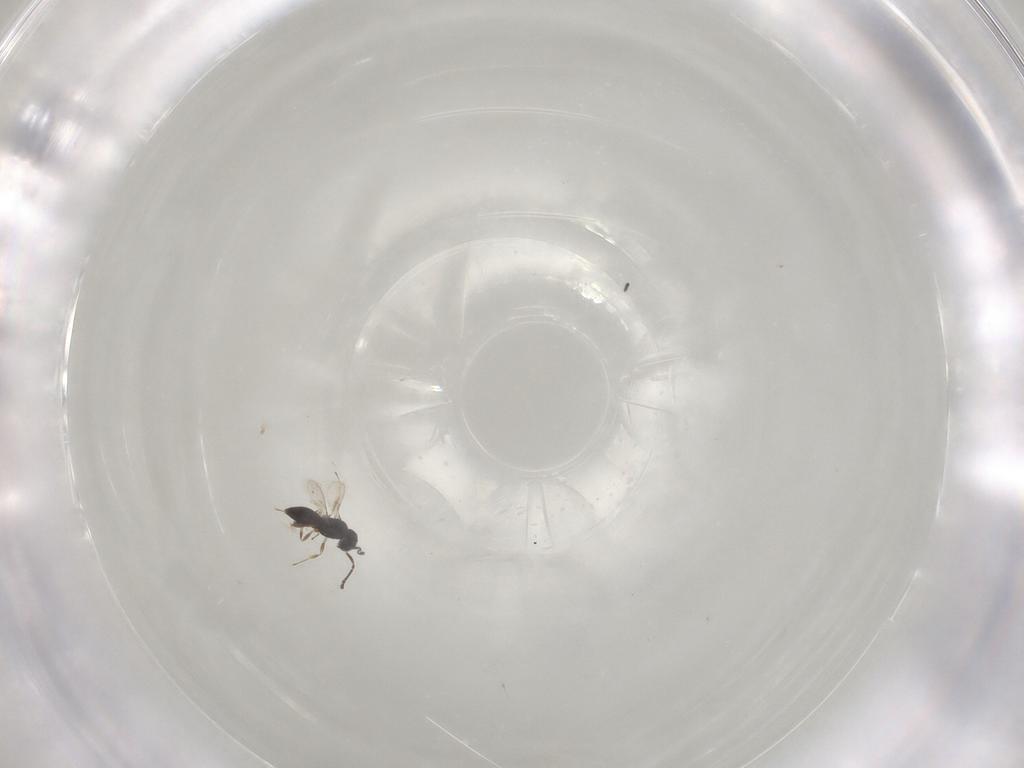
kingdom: Animalia
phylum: Arthropoda
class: Insecta
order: Hymenoptera
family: Scelionidae
